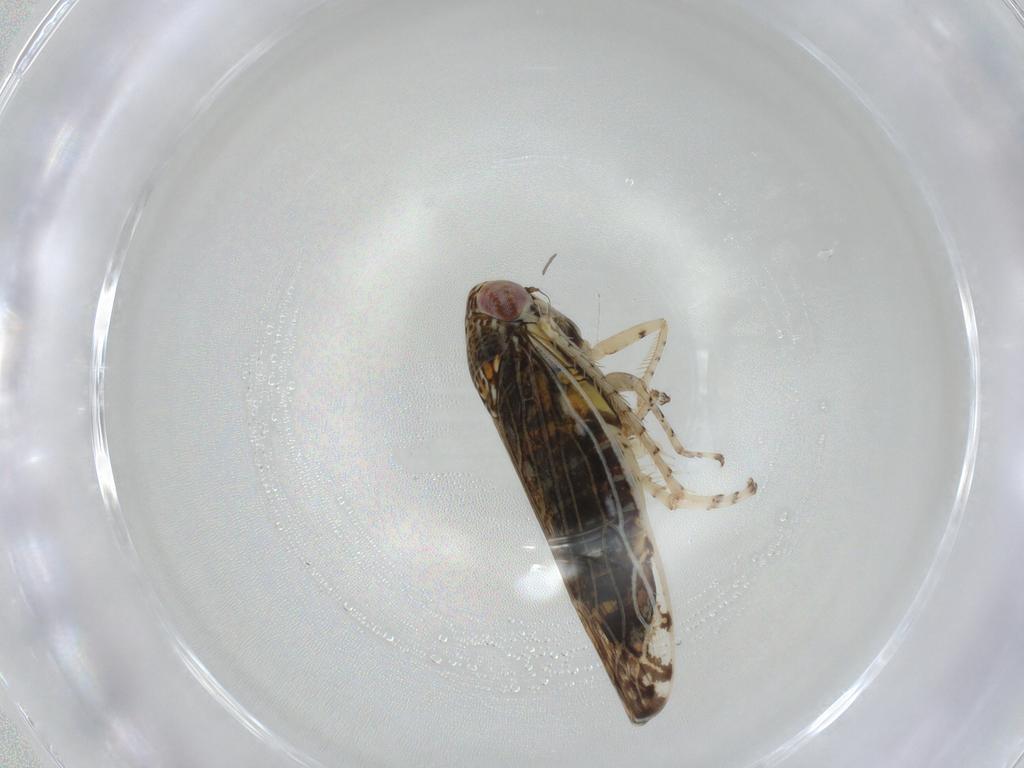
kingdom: Animalia
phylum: Arthropoda
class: Insecta
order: Hemiptera
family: Cicadellidae
